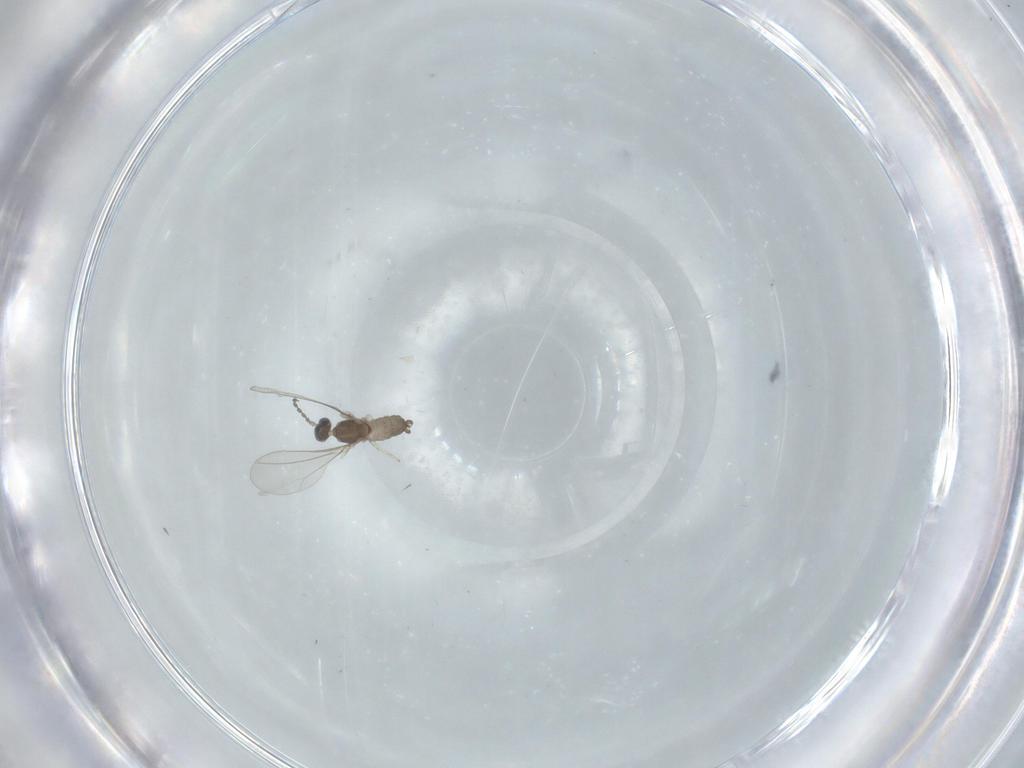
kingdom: Animalia
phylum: Arthropoda
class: Insecta
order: Diptera
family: Cecidomyiidae
